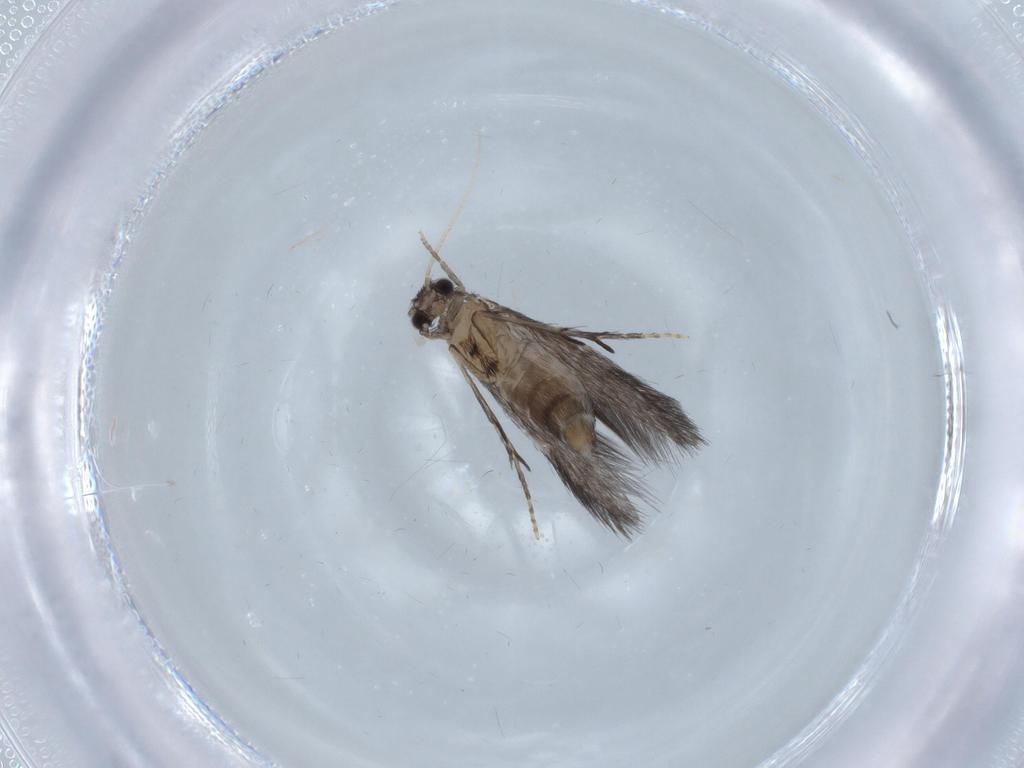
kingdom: Animalia
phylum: Arthropoda
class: Insecta
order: Trichoptera
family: Hydroptilidae
